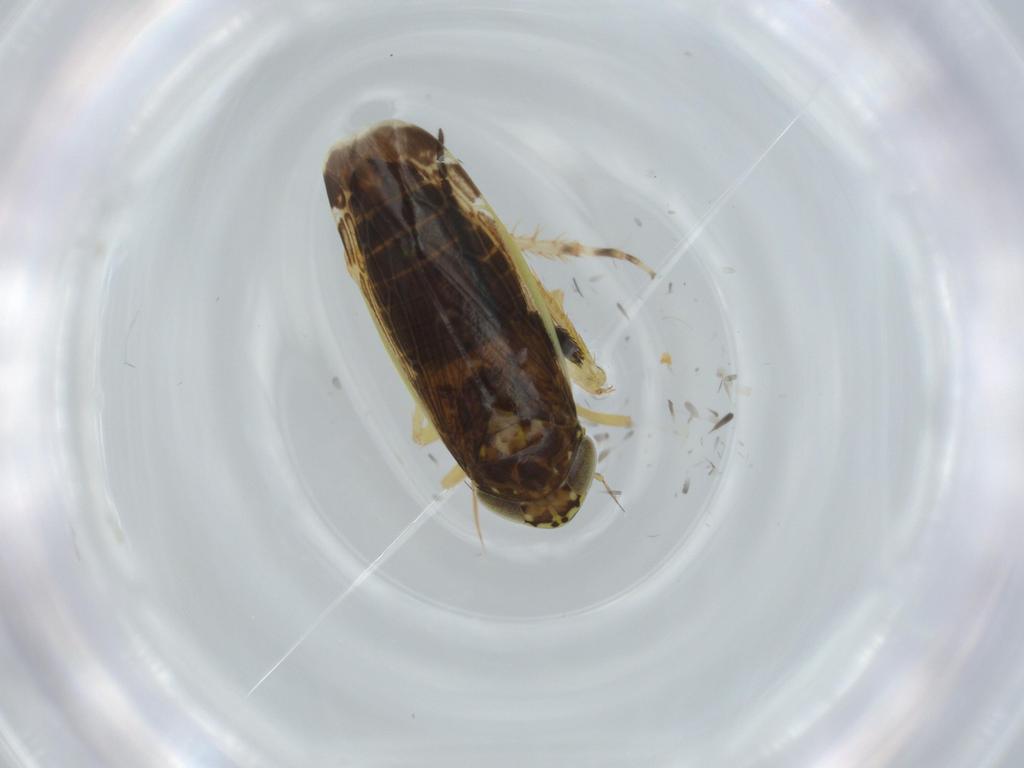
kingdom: Animalia
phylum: Arthropoda
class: Insecta
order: Hemiptera
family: Cicadellidae
